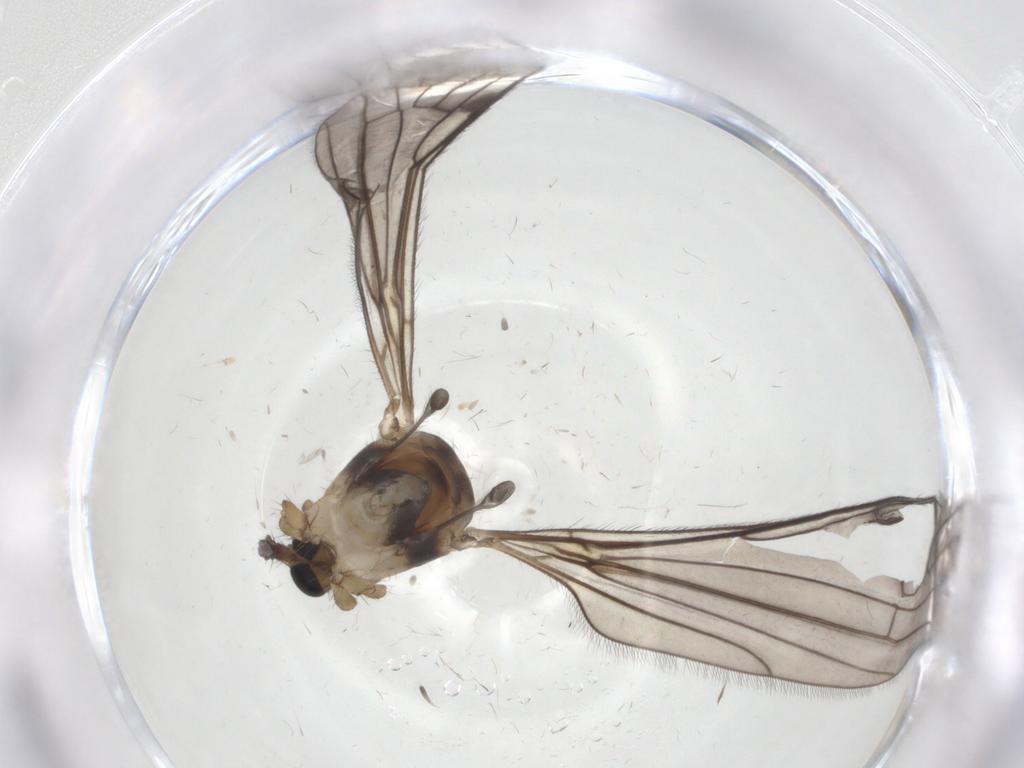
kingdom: Animalia
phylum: Arthropoda
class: Insecta
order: Diptera
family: Limoniidae
